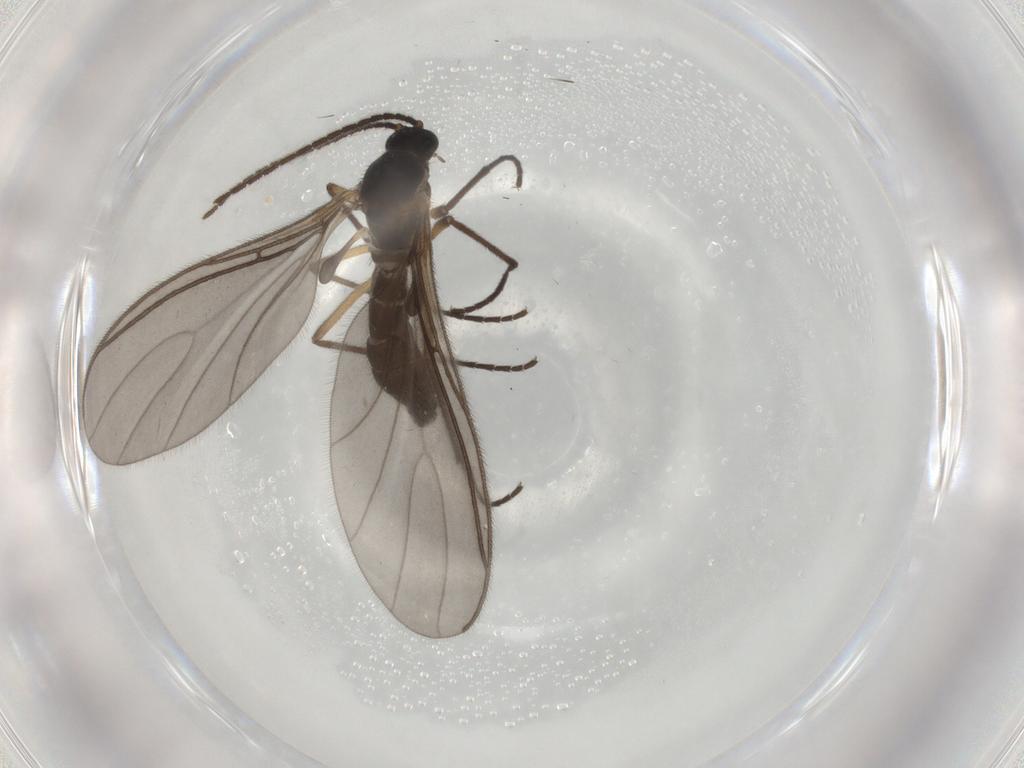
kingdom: Animalia
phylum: Arthropoda
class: Insecta
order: Diptera
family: Sciaridae
